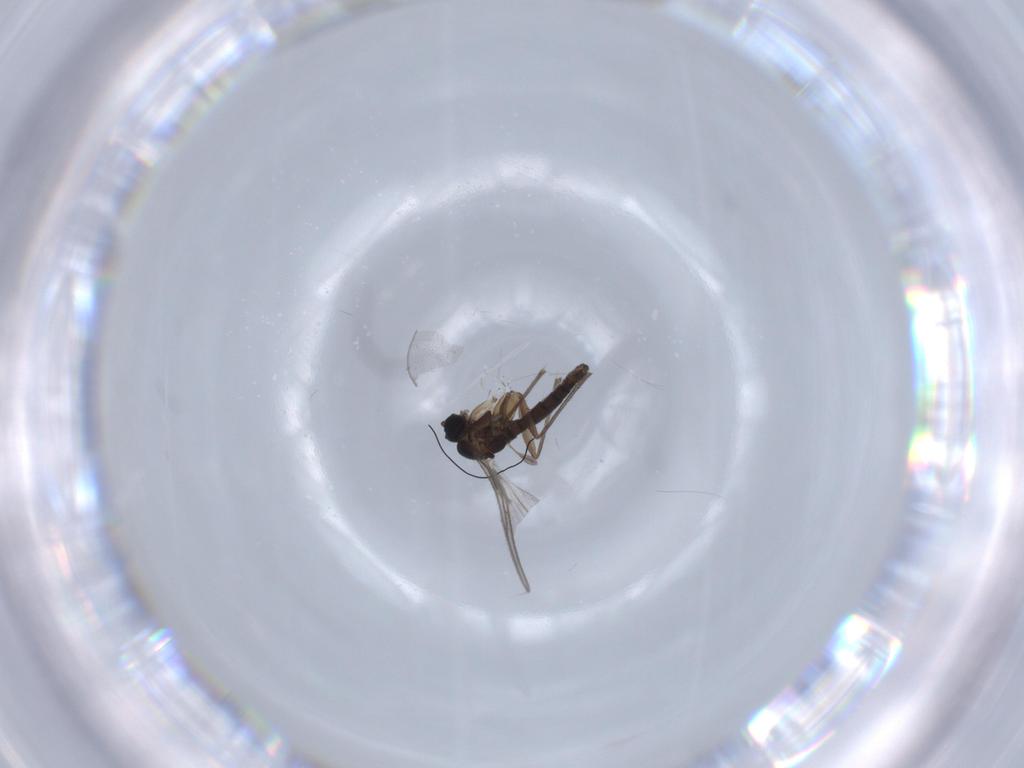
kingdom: Animalia
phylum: Arthropoda
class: Insecta
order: Diptera
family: Sciaridae
